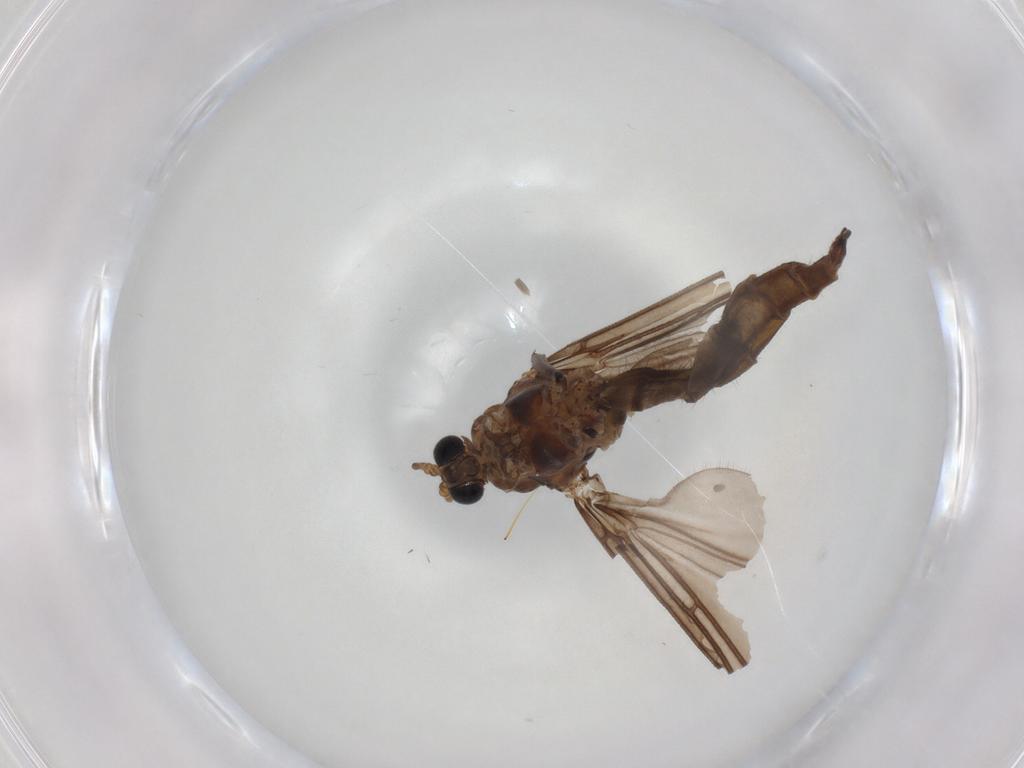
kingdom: Animalia
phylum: Arthropoda
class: Insecta
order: Diptera
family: Sciaridae
